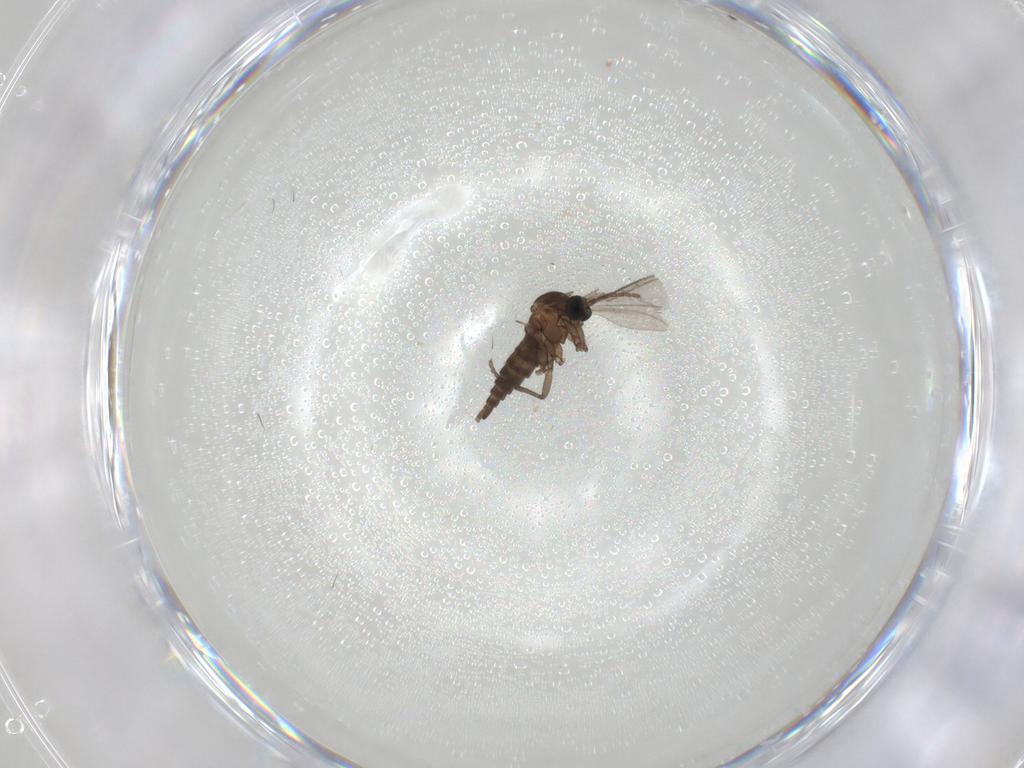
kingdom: Animalia
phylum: Arthropoda
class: Insecta
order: Diptera
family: Sciaridae
